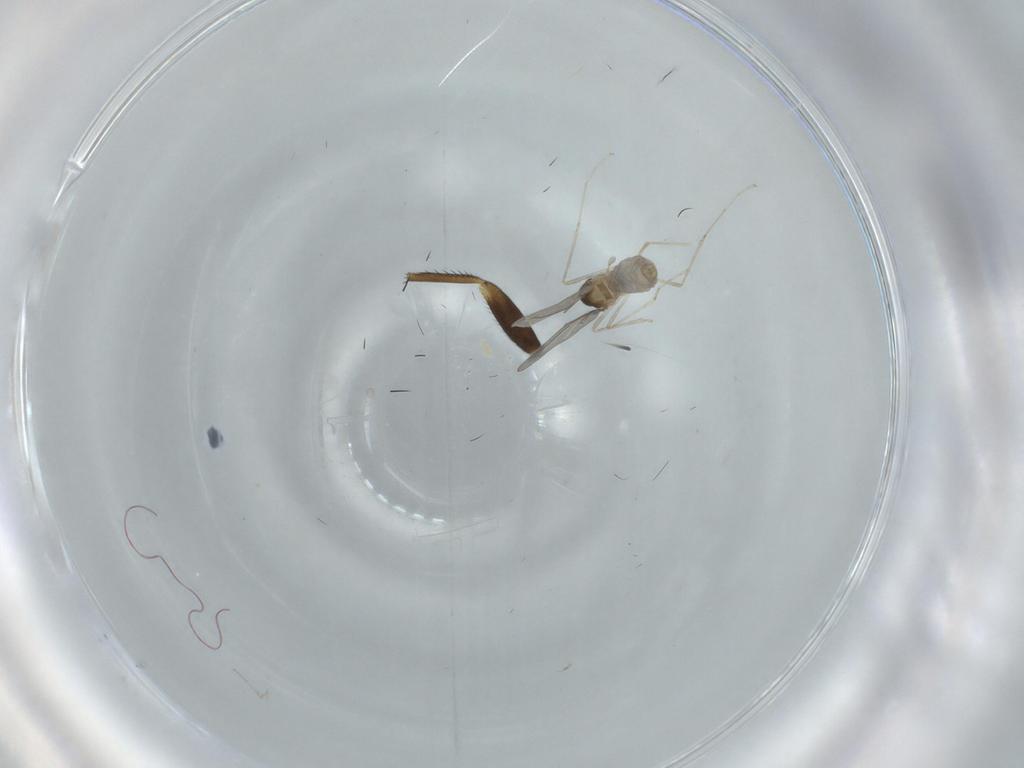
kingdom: Animalia
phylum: Arthropoda
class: Insecta
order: Diptera
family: Cecidomyiidae
